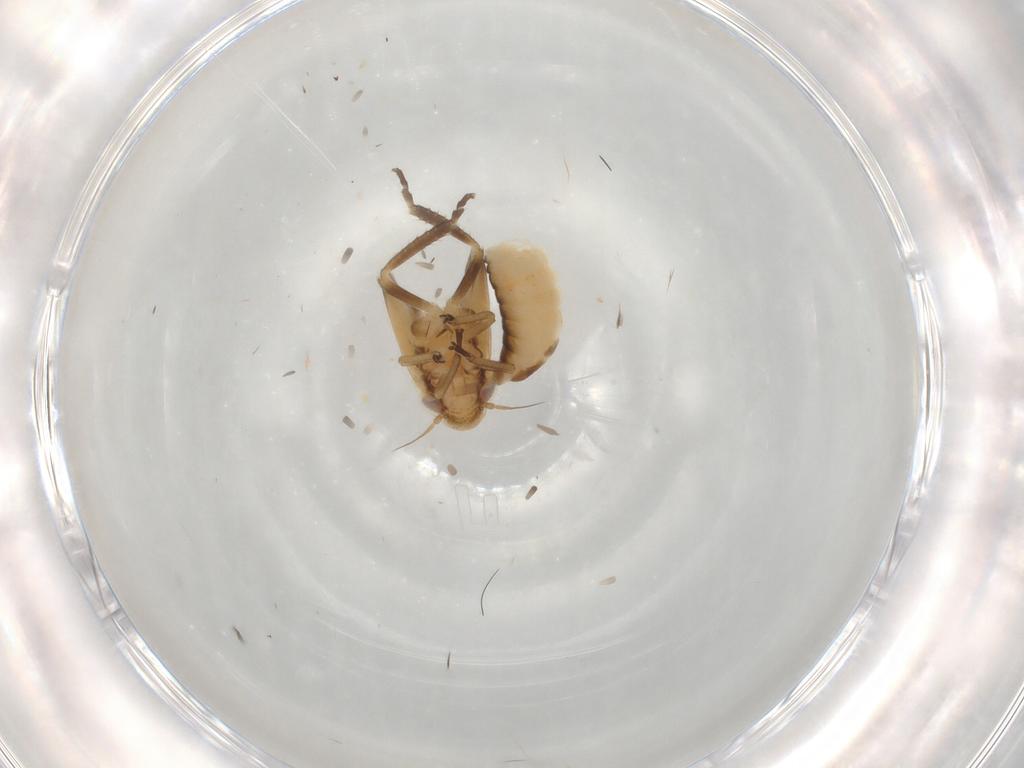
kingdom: Animalia
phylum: Arthropoda
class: Insecta
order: Hemiptera
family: Cicadellidae
